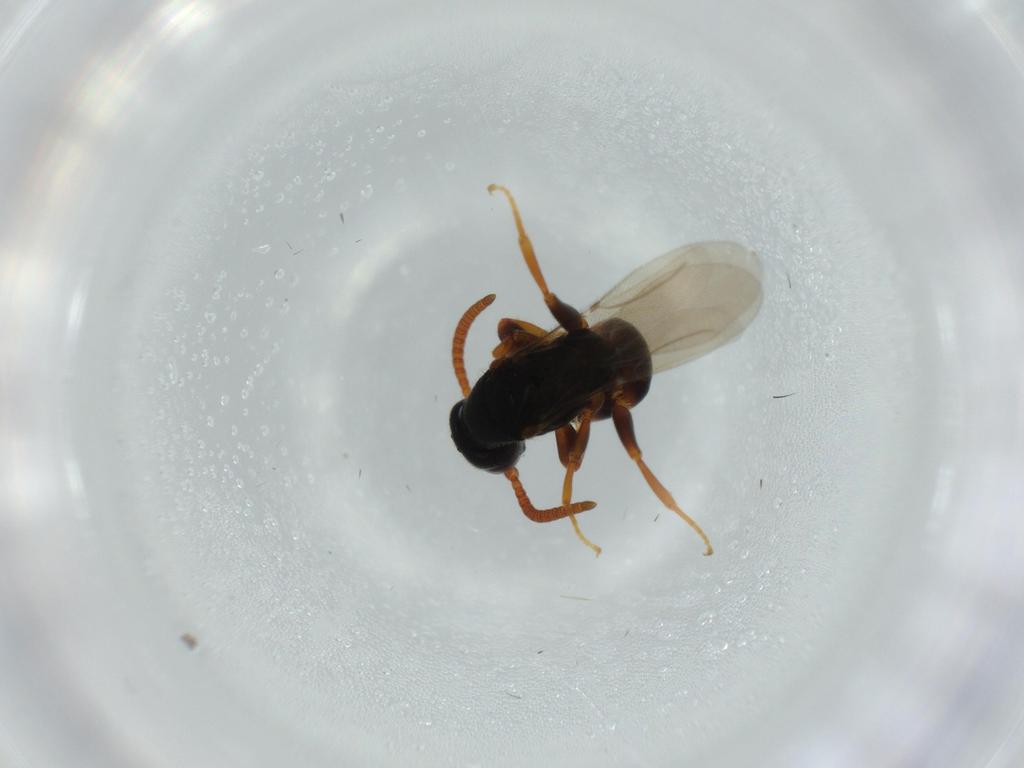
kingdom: Animalia
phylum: Arthropoda
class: Insecta
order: Hymenoptera
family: Bethylidae
